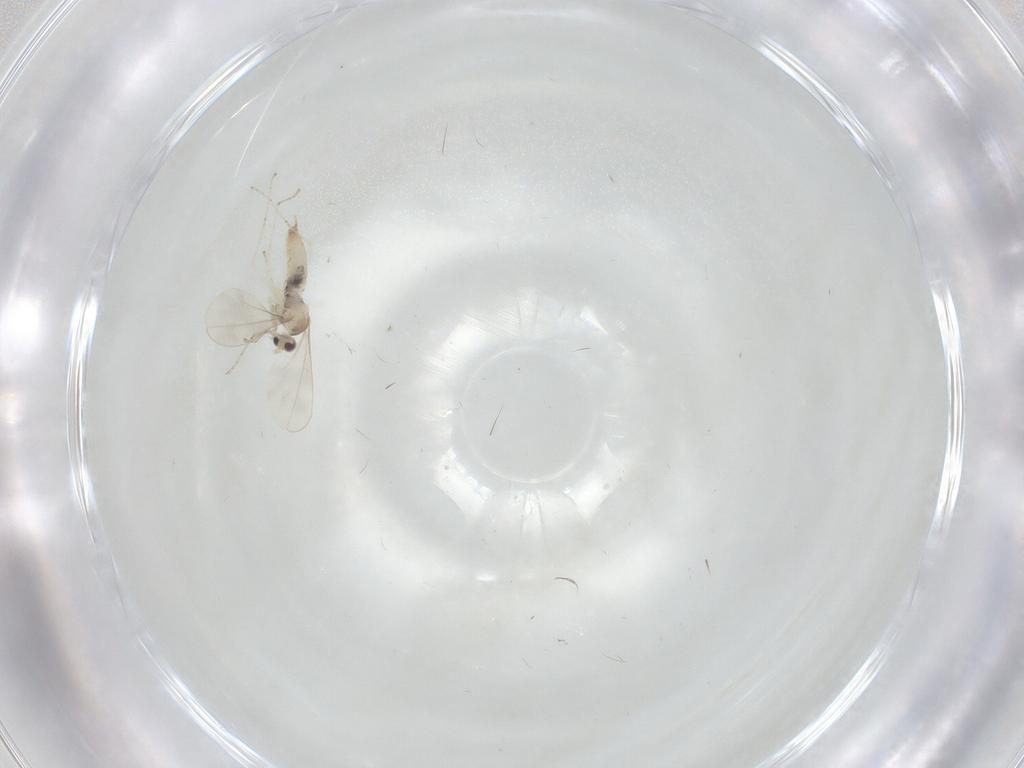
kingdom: Animalia
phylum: Arthropoda
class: Insecta
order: Diptera
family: Cecidomyiidae
